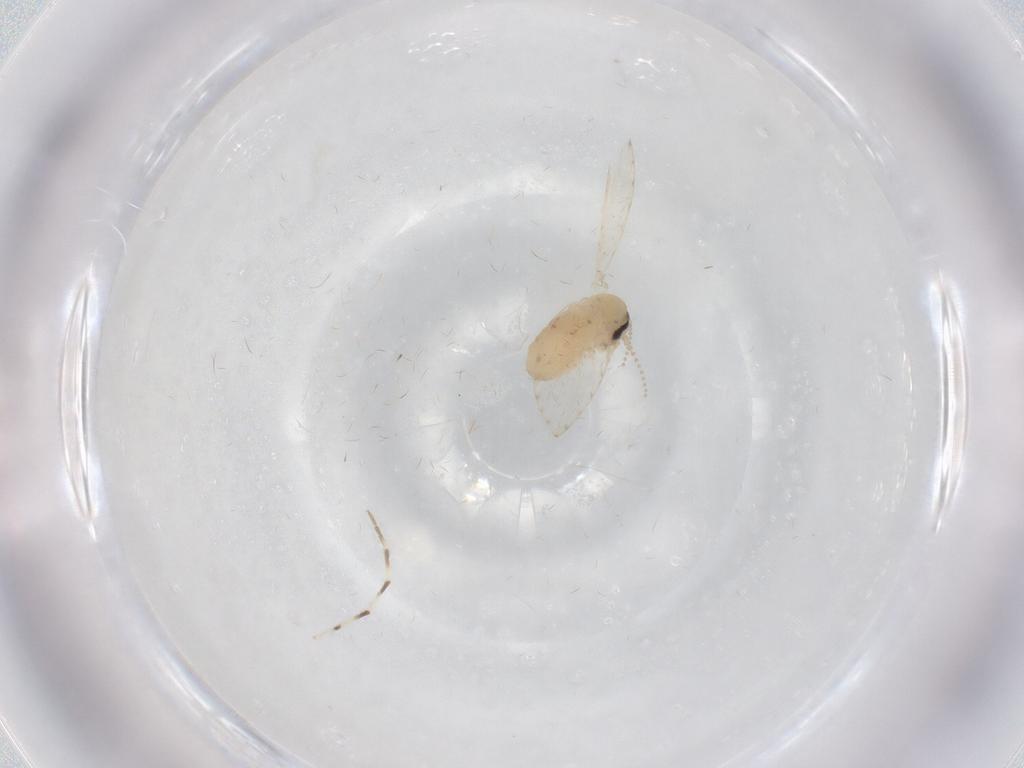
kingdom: Animalia
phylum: Arthropoda
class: Insecta
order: Diptera
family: Psychodidae
